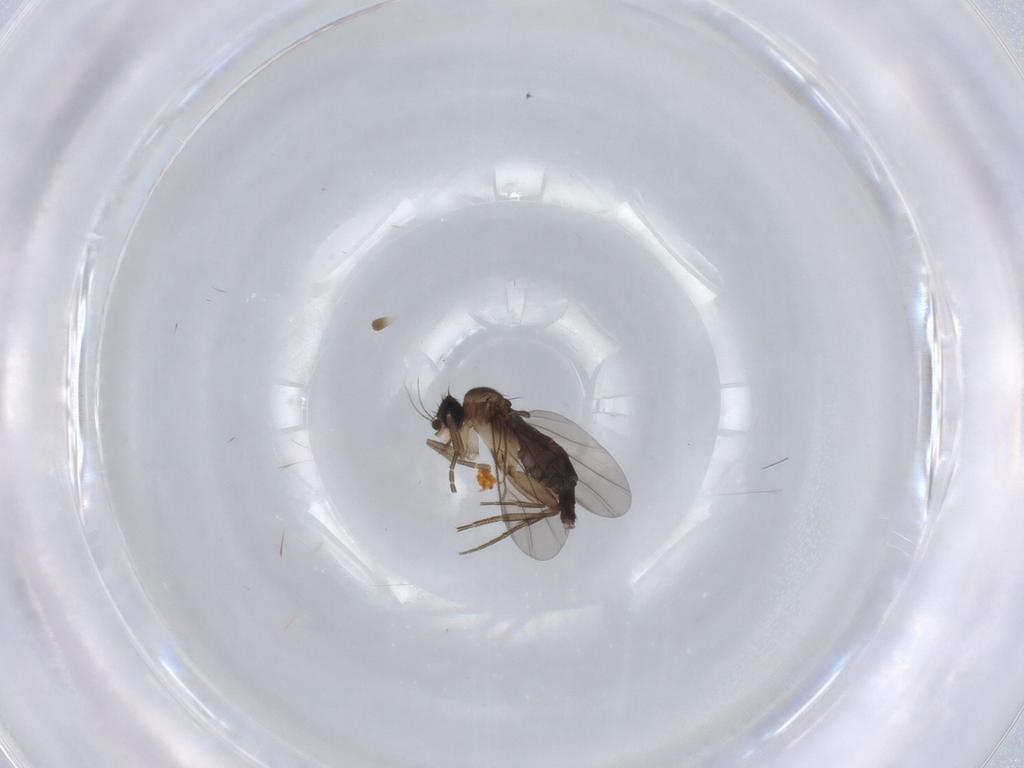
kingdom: Animalia
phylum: Arthropoda
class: Insecta
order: Diptera
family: Phoridae
